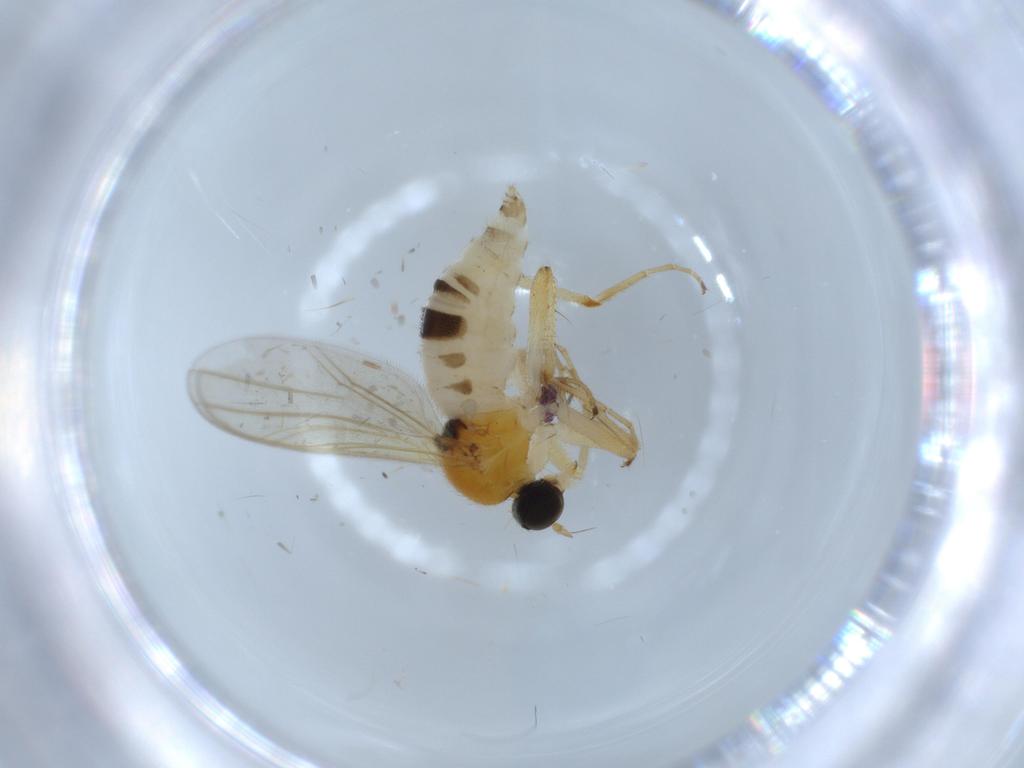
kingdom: Animalia
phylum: Arthropoda
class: Insecta
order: Diptera
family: Hybotidae
